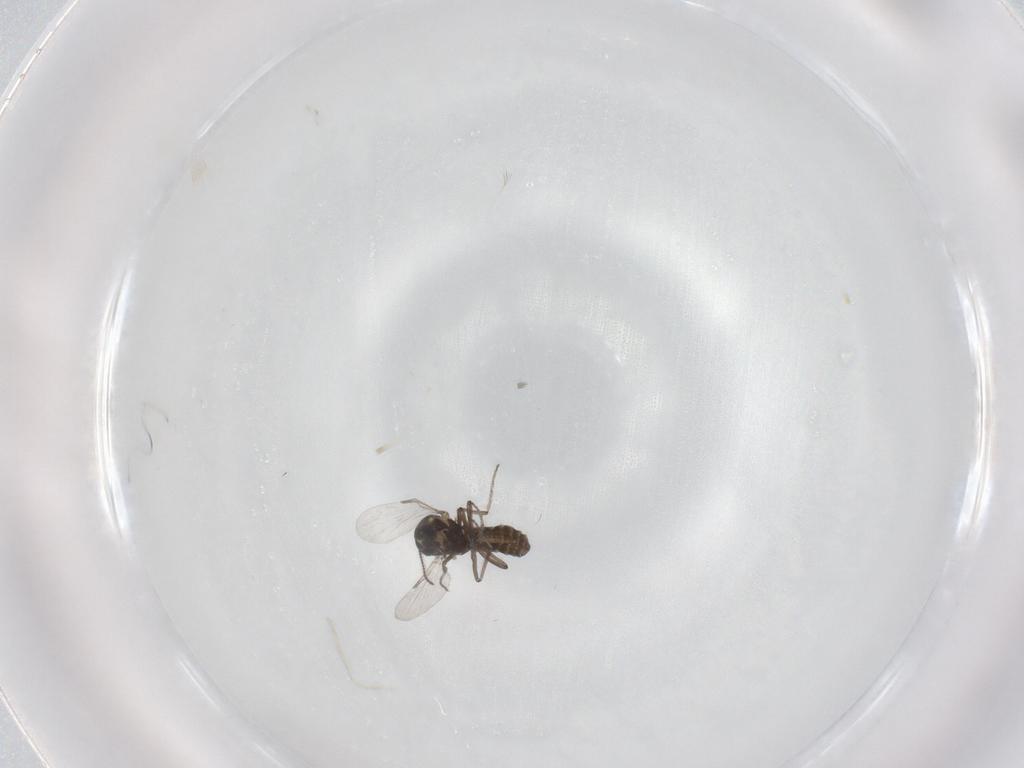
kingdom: Animalia
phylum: Arthropoda
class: Insecta
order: Diptera
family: Ceratopogonidae
